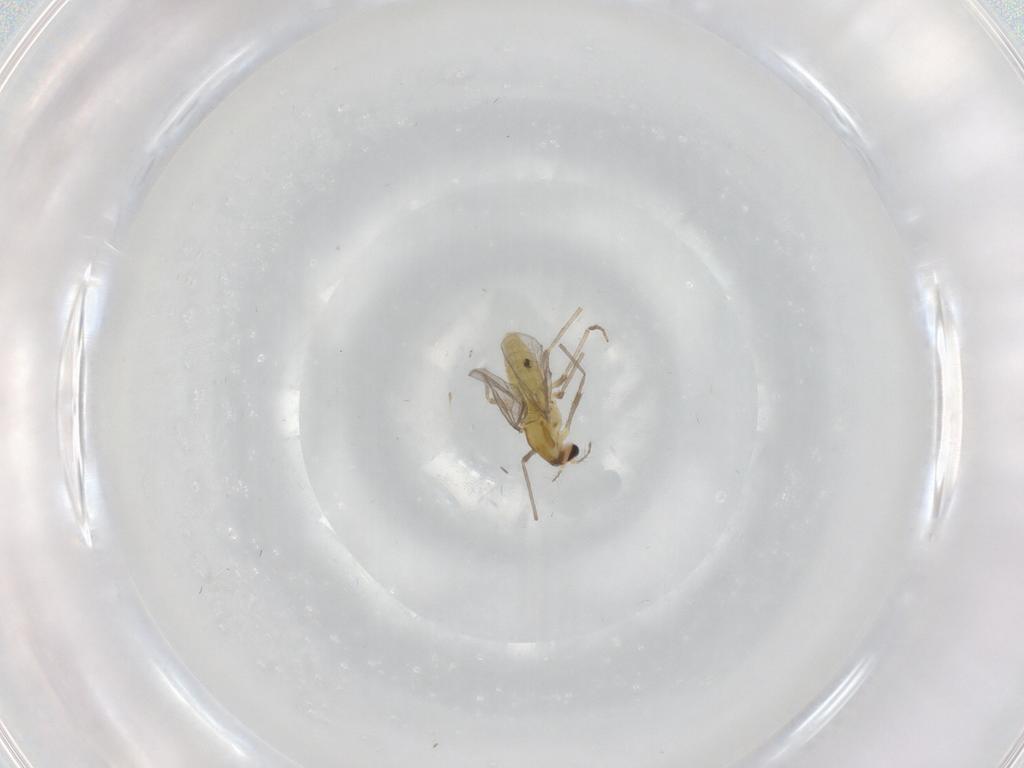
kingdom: Animalia
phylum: Arthropoda
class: Insecta
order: Diptera
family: Chironomidae
